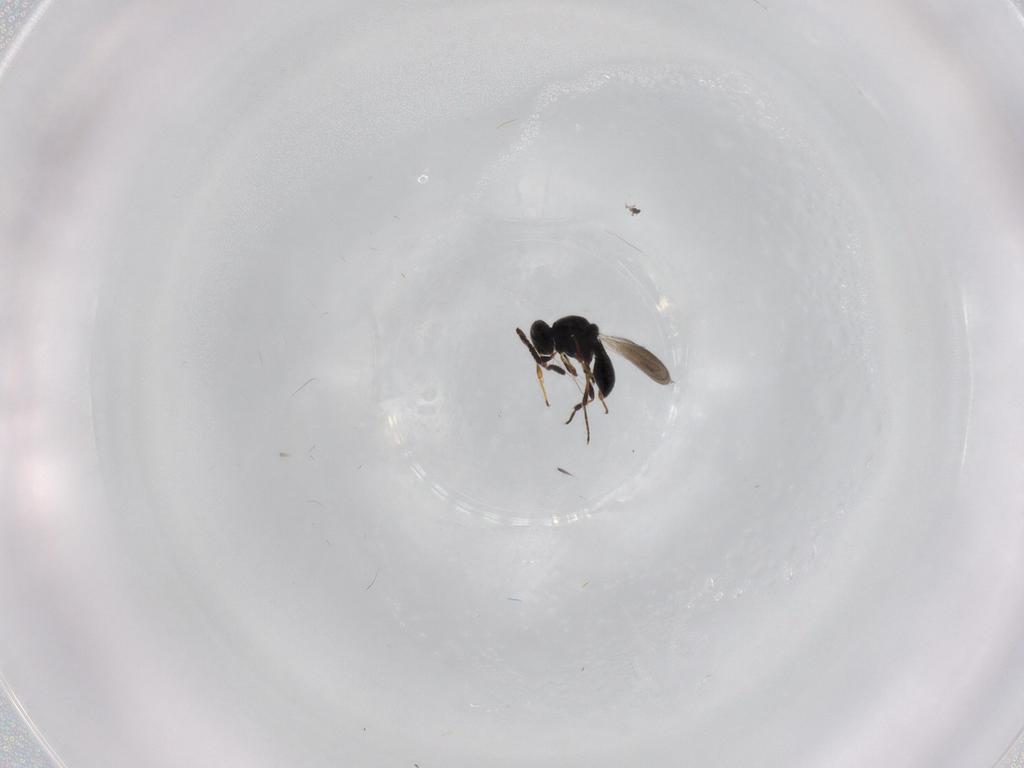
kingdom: Animalia
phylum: Arthropoda
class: Insecta
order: Hymenoptera
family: Platygastridae
